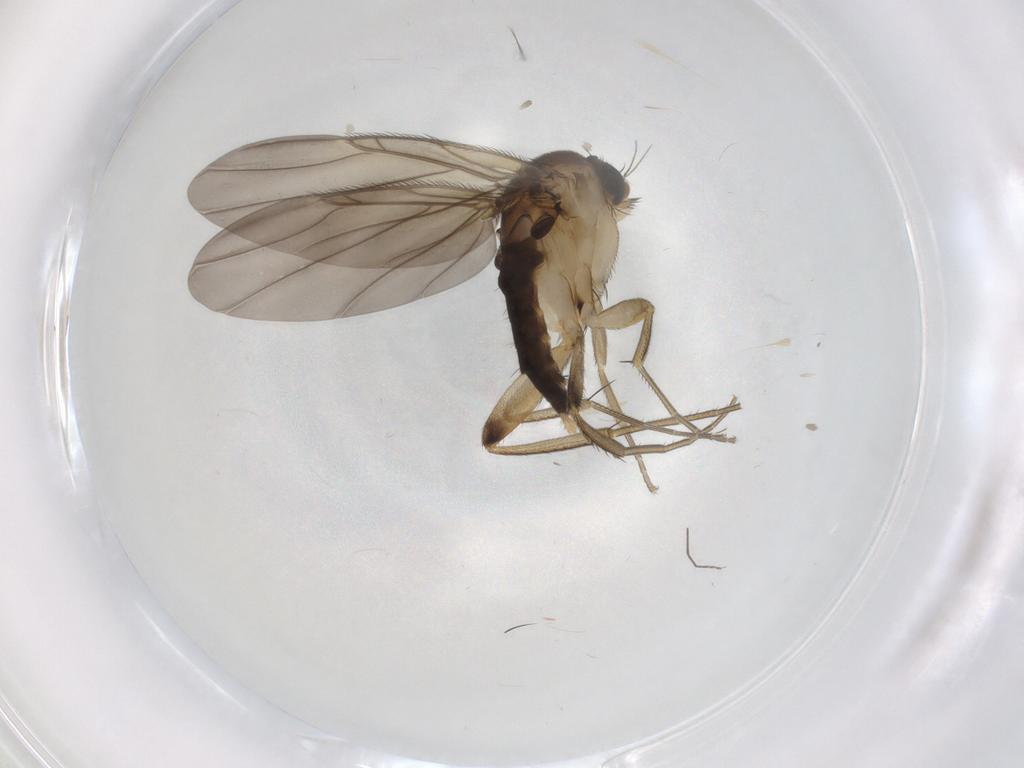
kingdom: Animalia
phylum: Arthropoda
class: Insecta
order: Diptera
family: Phoridae
